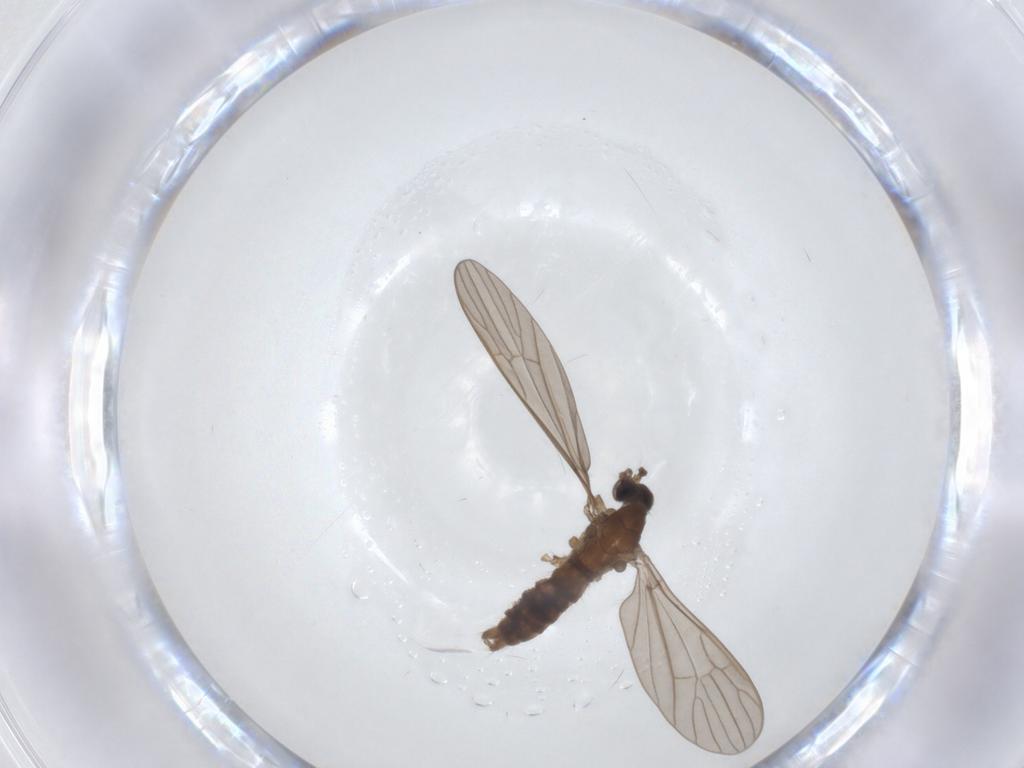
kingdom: Animalia
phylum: Arthropoda
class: Insecta
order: Diptera
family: Limoniidae
